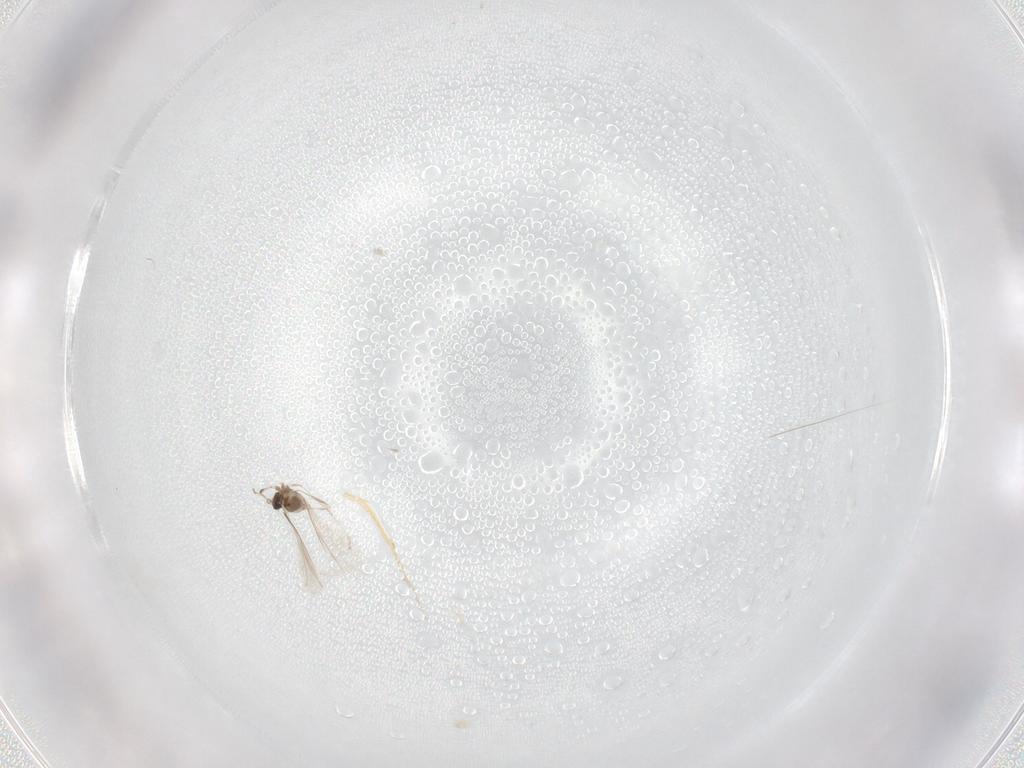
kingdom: Animalia
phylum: Arthropoda
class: Insecta
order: Diptera
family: Cecidomyiidae
